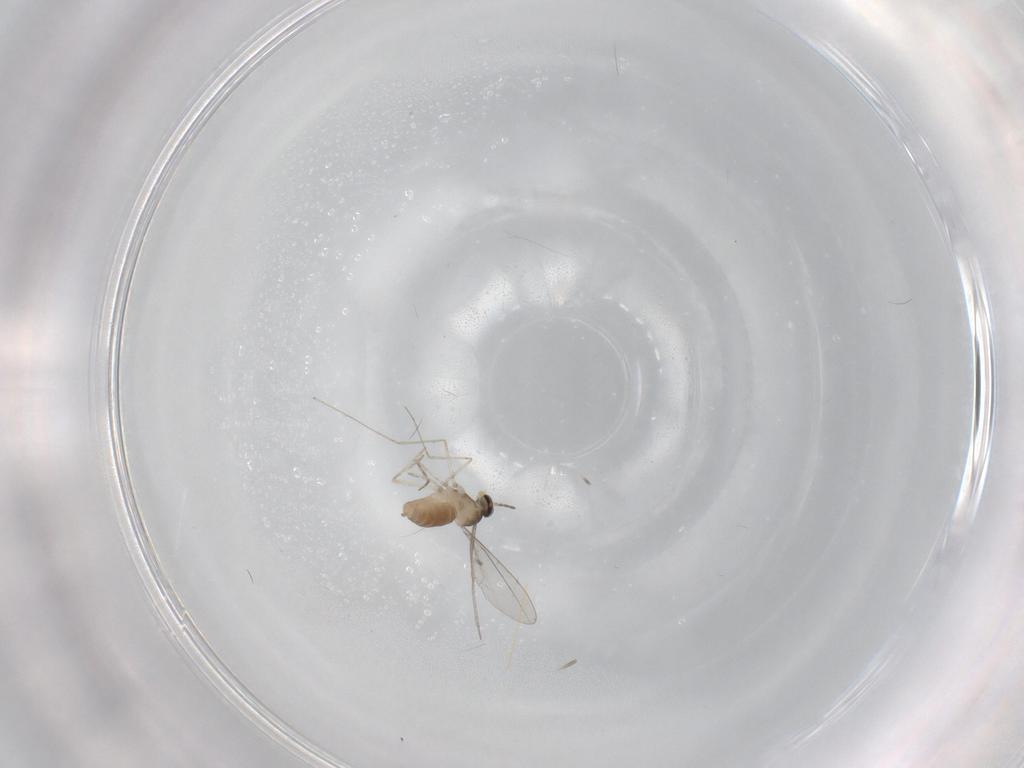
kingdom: Animalia
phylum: Arthropoda
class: Insecta
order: Diptera
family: Cecidomyiidae
